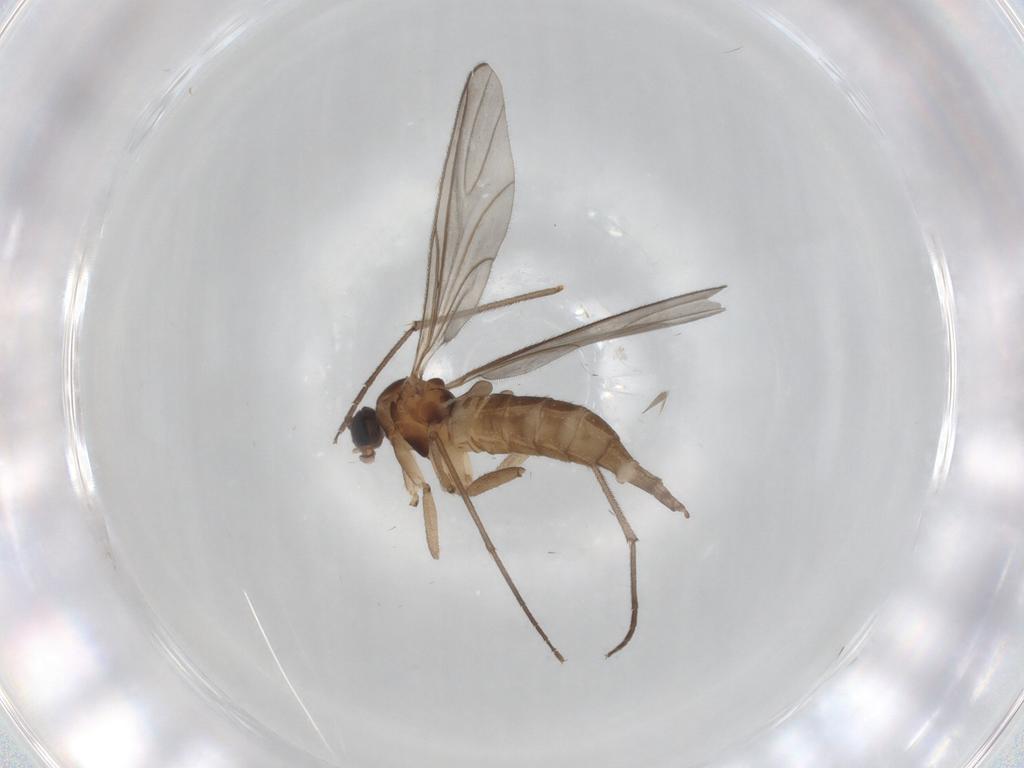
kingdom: Animalia
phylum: Arthropoda
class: Insecta
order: Diptera
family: Sciaridae
